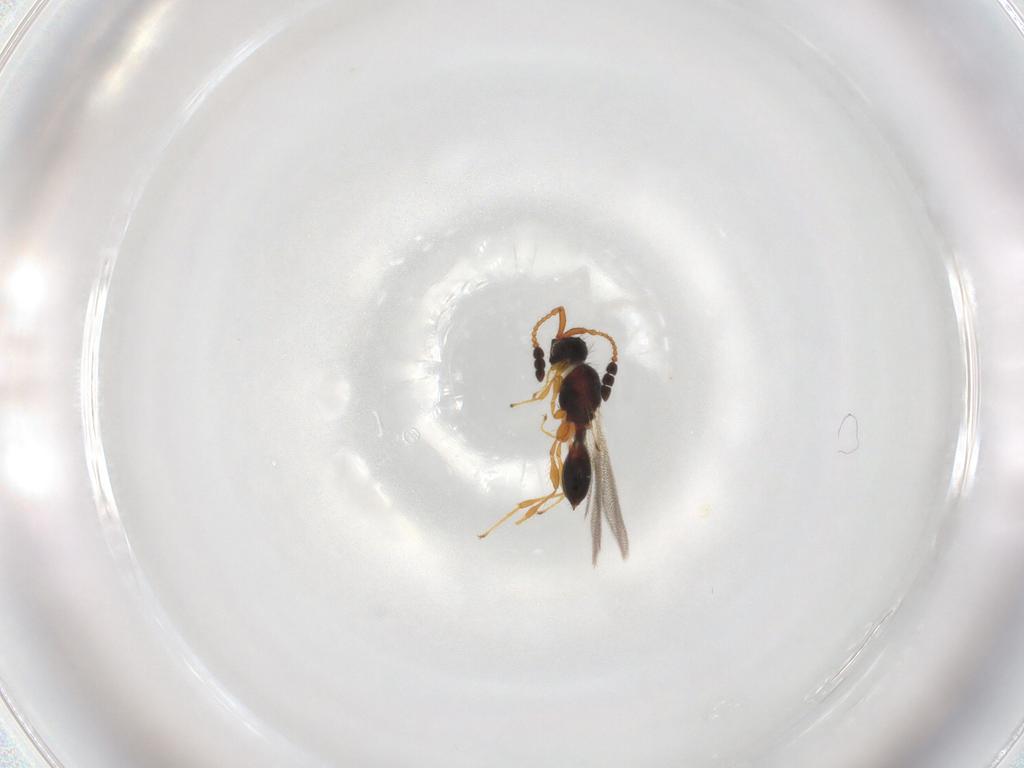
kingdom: Animalia
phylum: Arthropoda
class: Insecta
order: Hymenoptera
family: Diapriidae
